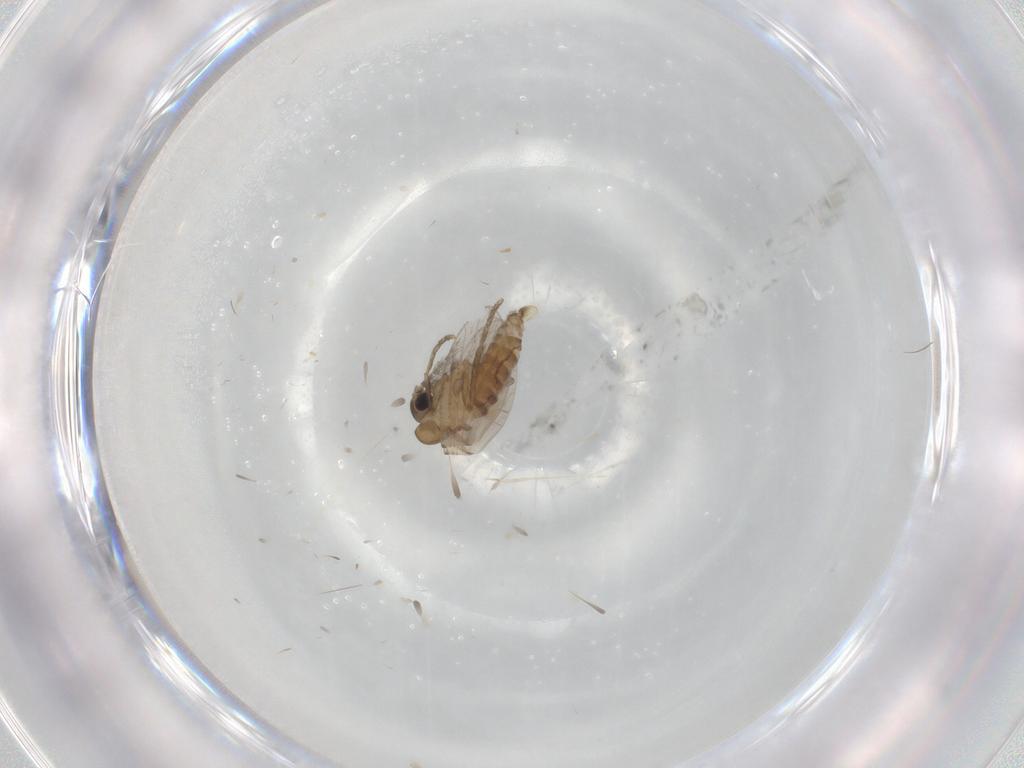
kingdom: Animalia
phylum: Arthropoda
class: Insecta
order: Diptera
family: Psychodidae
